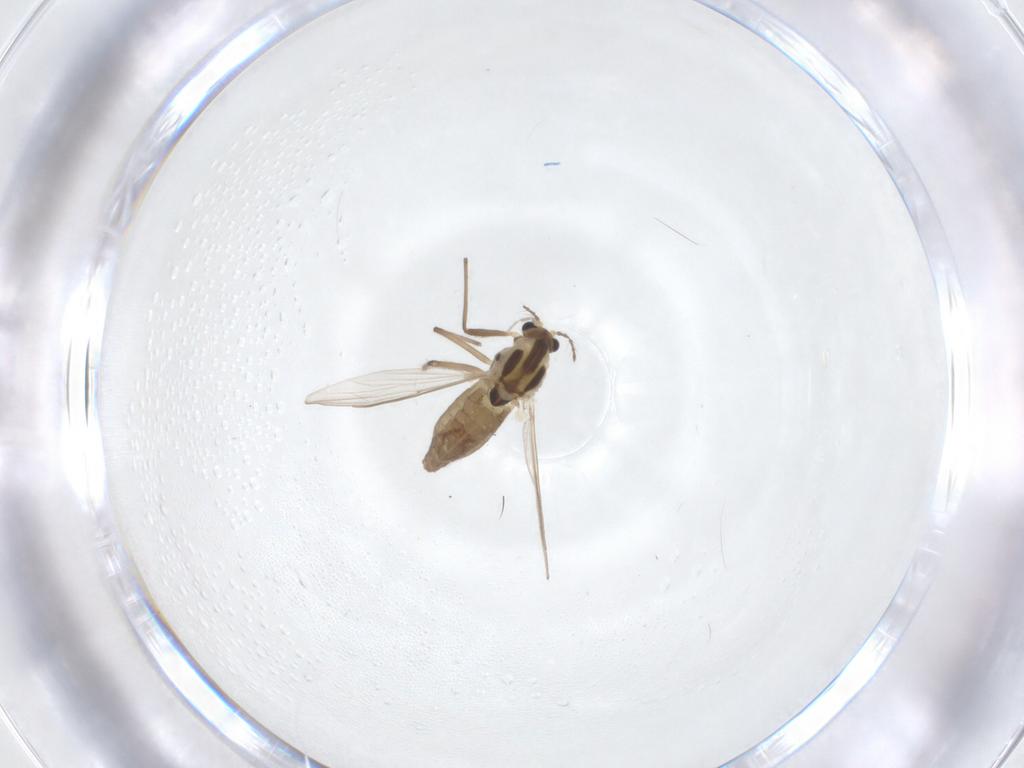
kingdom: Animalia
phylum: Arthropoda
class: Insecta
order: Diptera
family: Chironomidae
